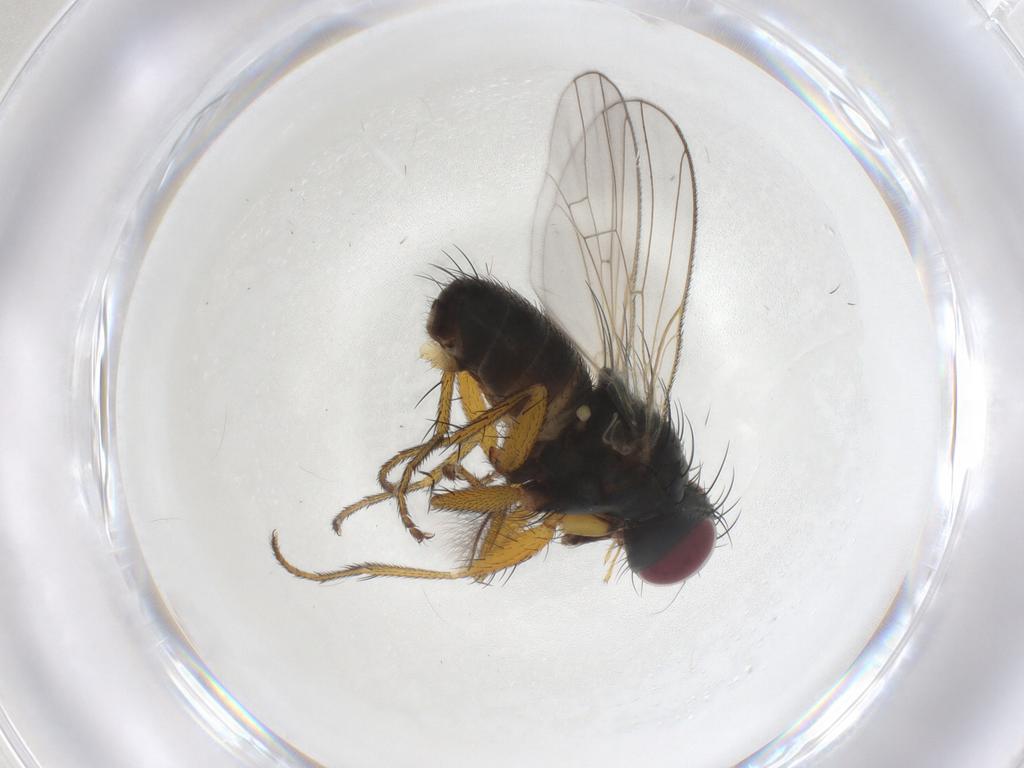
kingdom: Animalia
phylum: Arthropoda
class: Insecta
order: Diptera
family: Muscidae
